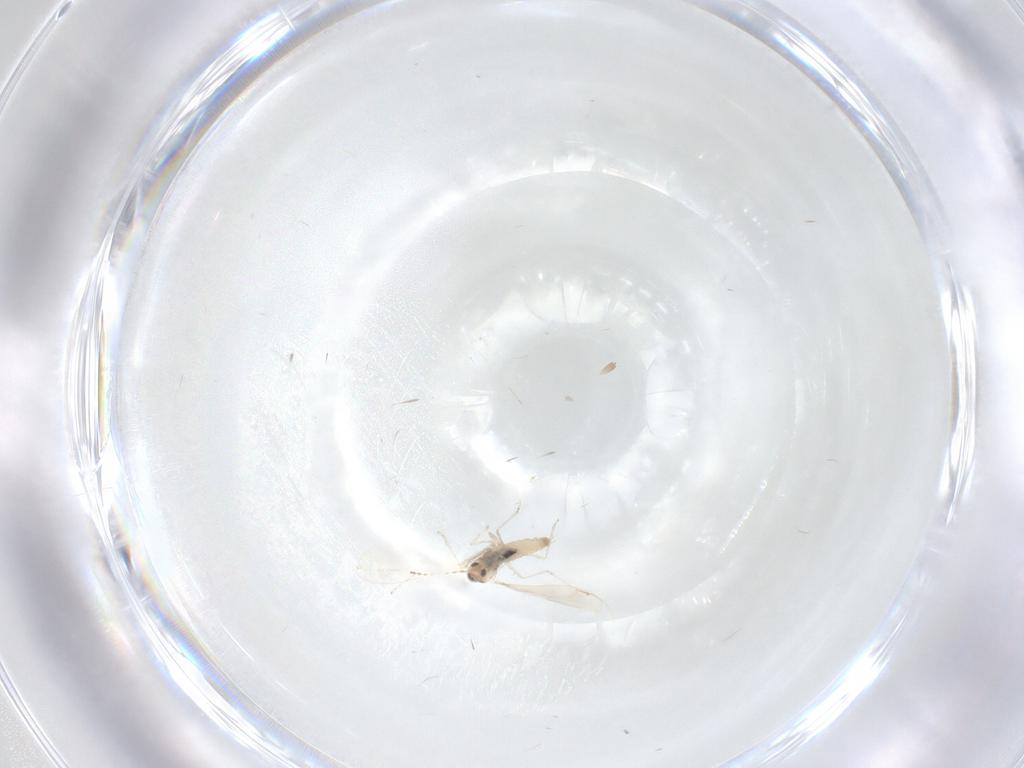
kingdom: Animalia
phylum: Arthropoda
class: Insecta
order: Diptera
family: Cecidomyiidae
